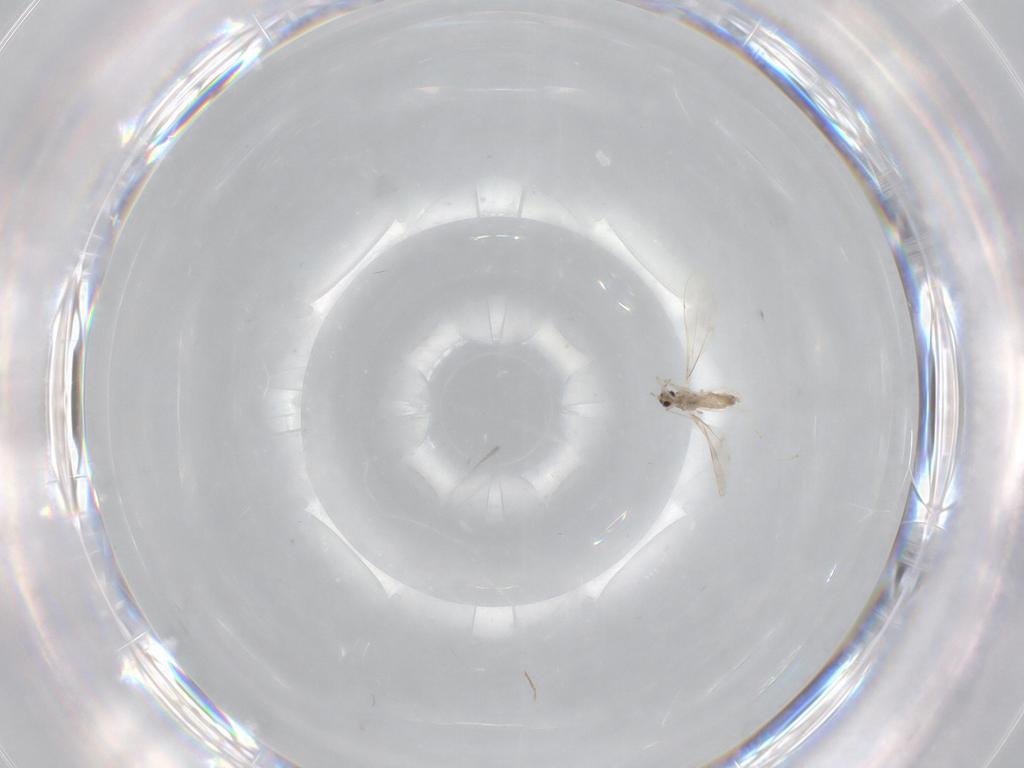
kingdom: Animalia
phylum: Arthropoda
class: Insecta
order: Diptera
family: Cecidomyiidae
